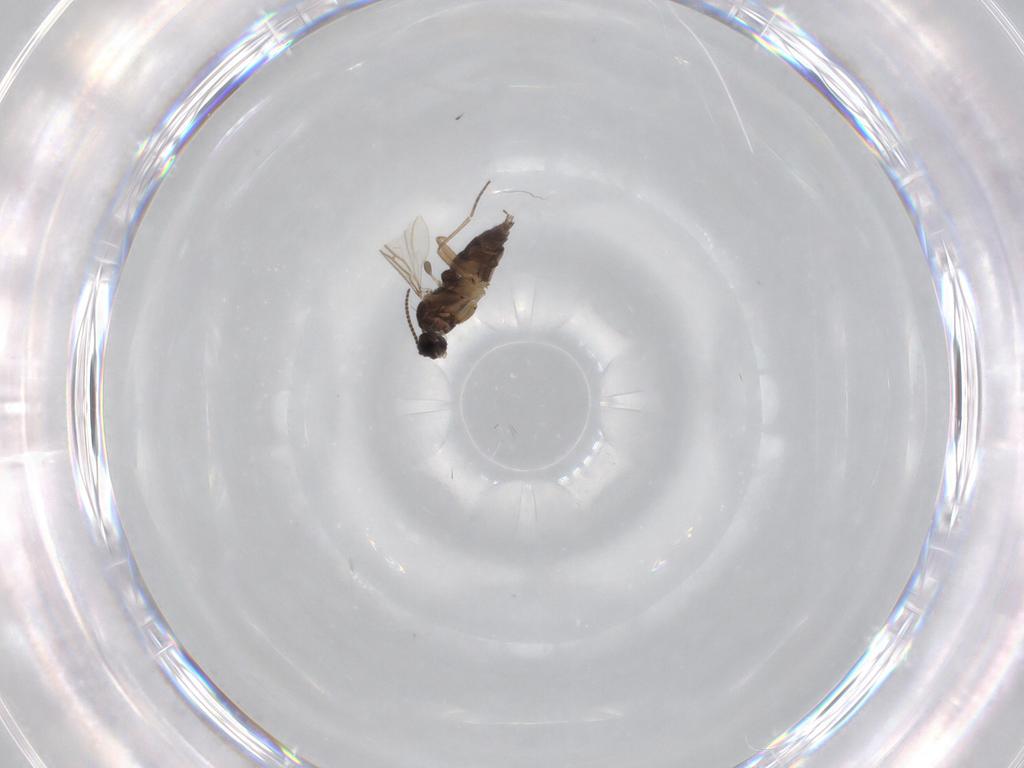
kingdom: Animalia
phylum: Arthropoda
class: Insecta
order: Diptera
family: Sciaridae
